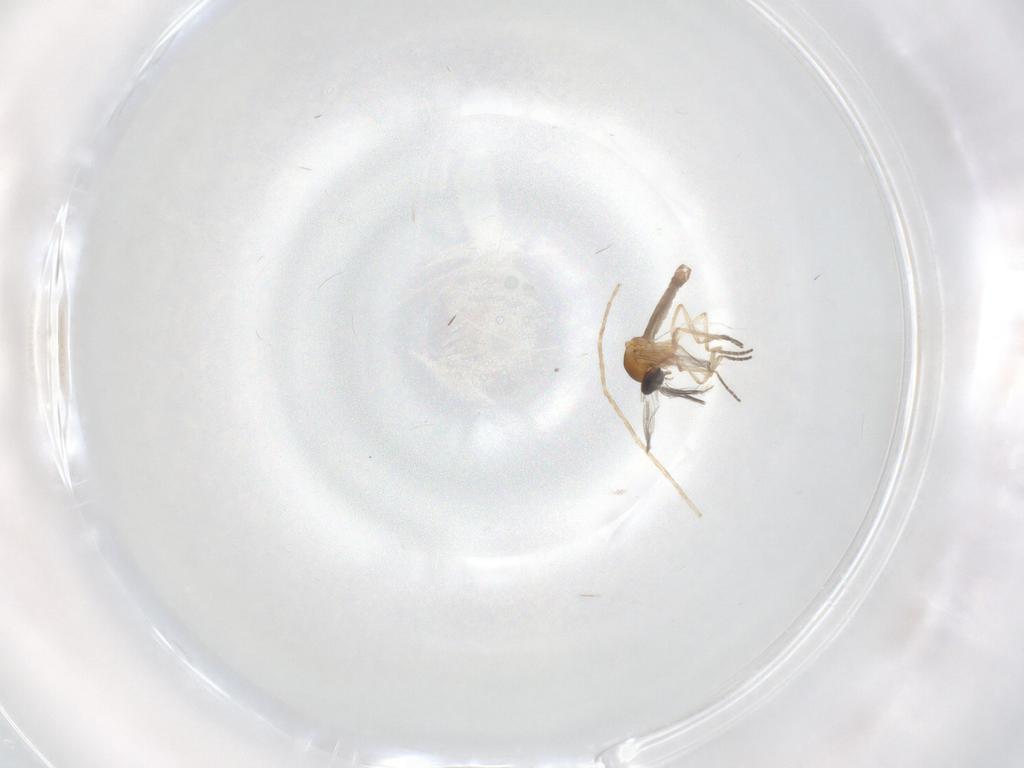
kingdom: Animalia
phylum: Arthropoda
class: Insecta
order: Diptera
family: Ceratopogonidae
